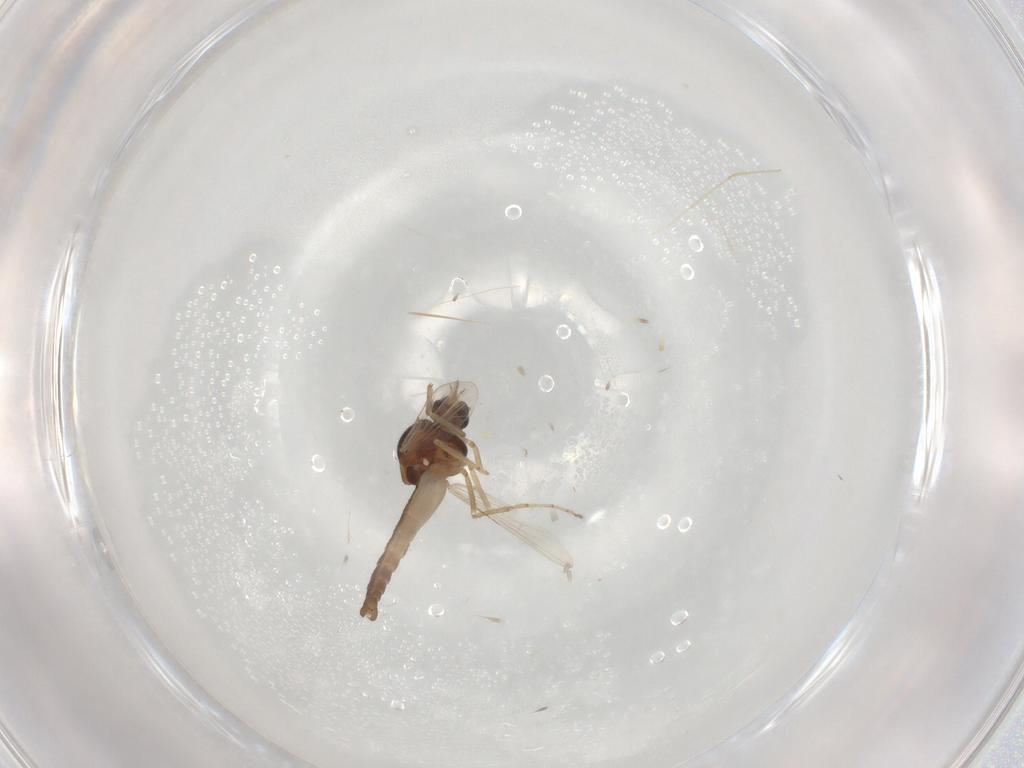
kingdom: Animalia
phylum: Arthropoda
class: Insecta
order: Diptera
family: Ceratopogonidae
